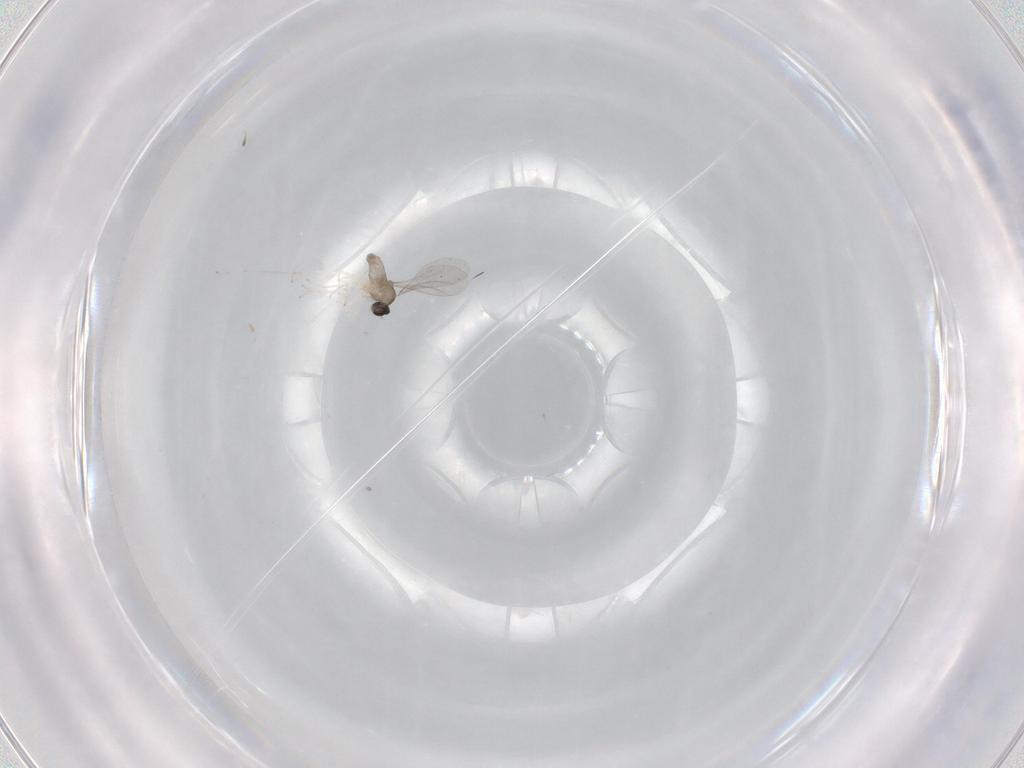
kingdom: Animalia
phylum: Arthropoda
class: Insecta
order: Diptera
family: Cecidomyiidae
